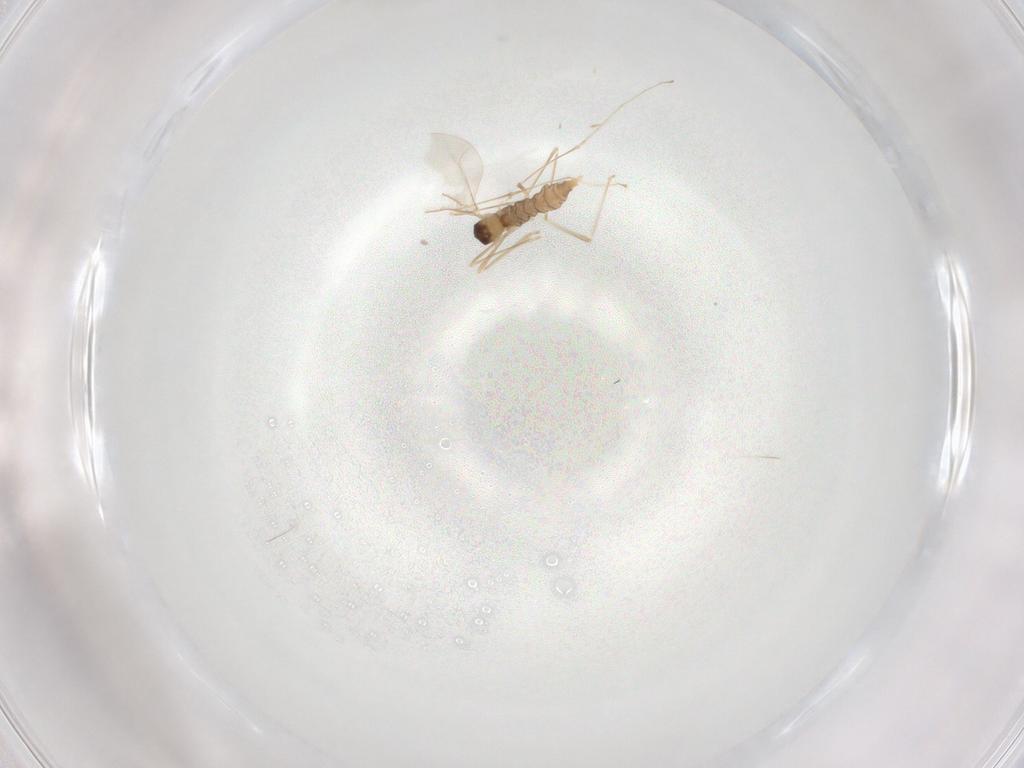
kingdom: Animalia
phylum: Arthropoda
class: Insecta
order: Diptera
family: Cecidomyiidae
